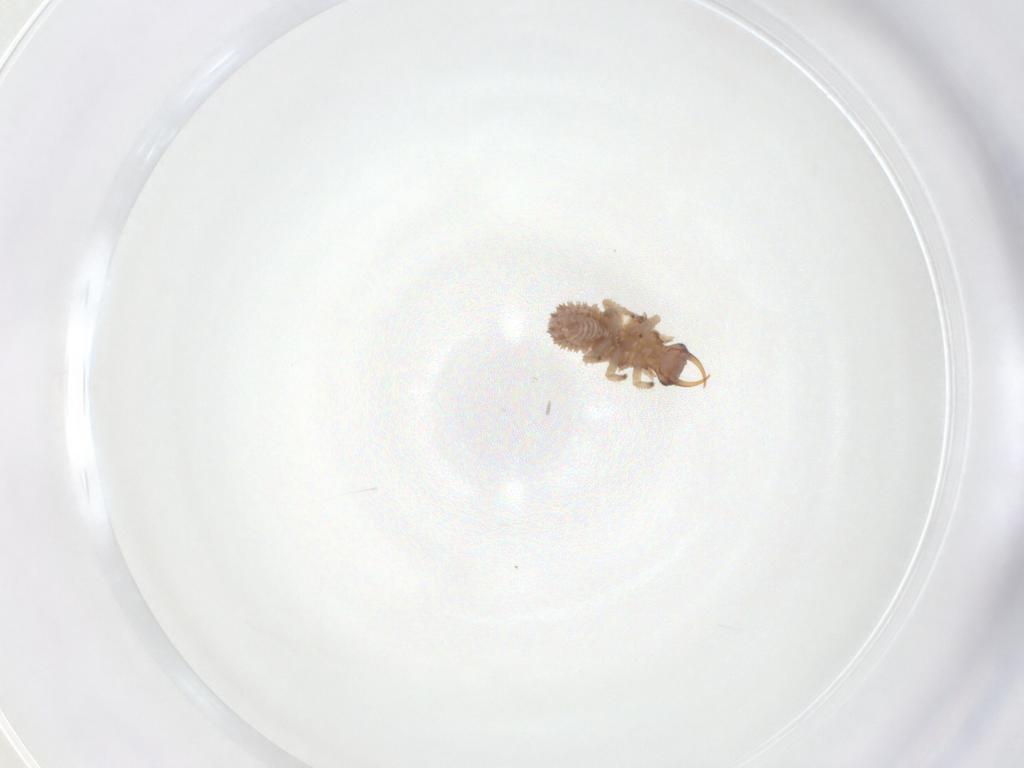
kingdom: Animalia
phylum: Arthropoda
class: Insecta
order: Neuroptera
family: Chrysopidae
